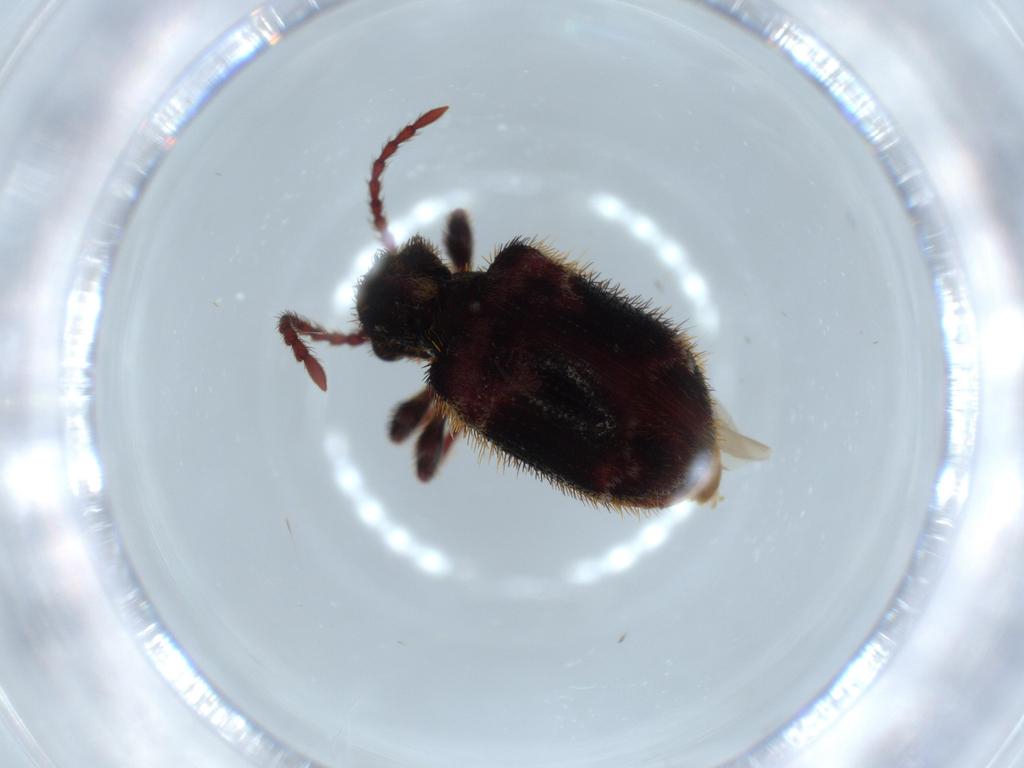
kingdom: Animalia
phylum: Arthropoda
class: Insecta
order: Coleoptera
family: Ptinidae
